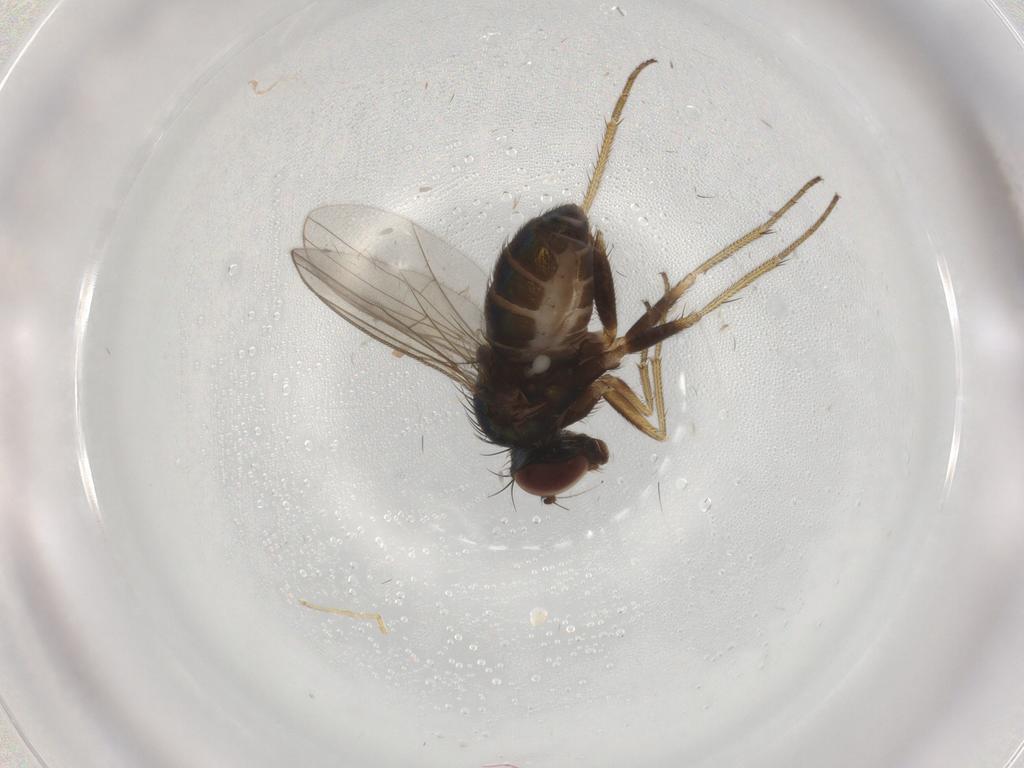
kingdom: Animalia
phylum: Arthropoda
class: Insecta
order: Diptera
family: Dolichopodidae
